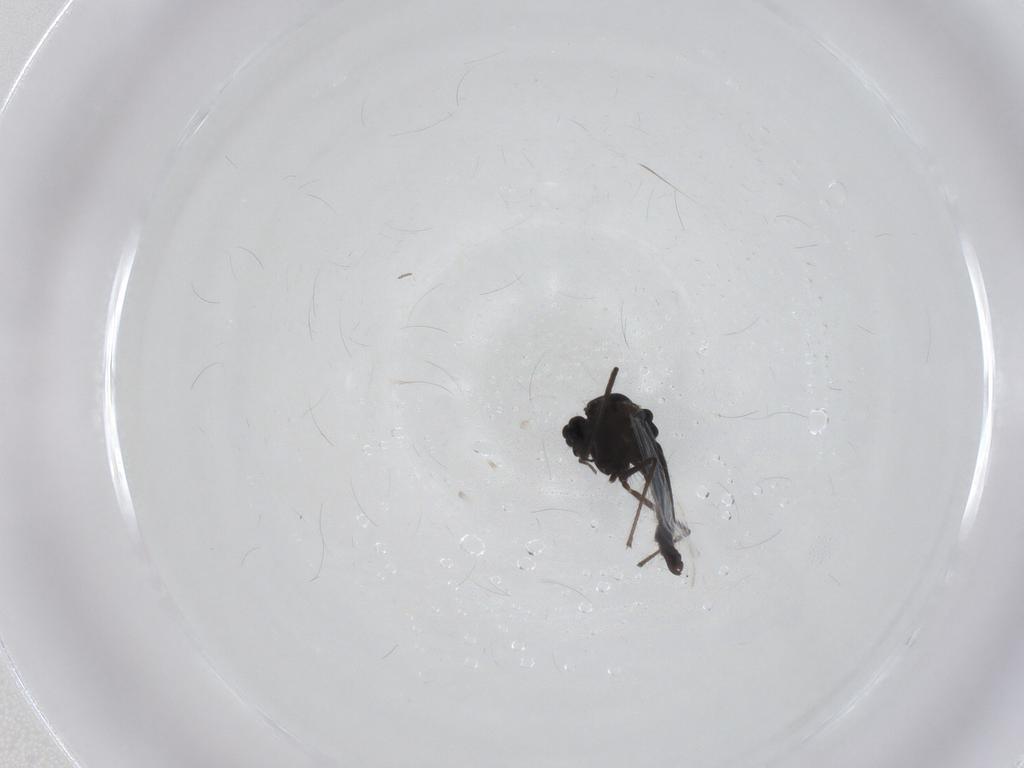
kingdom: Animalia
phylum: Arthropoda
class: Insecta
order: Diptera
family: Chironomidae
